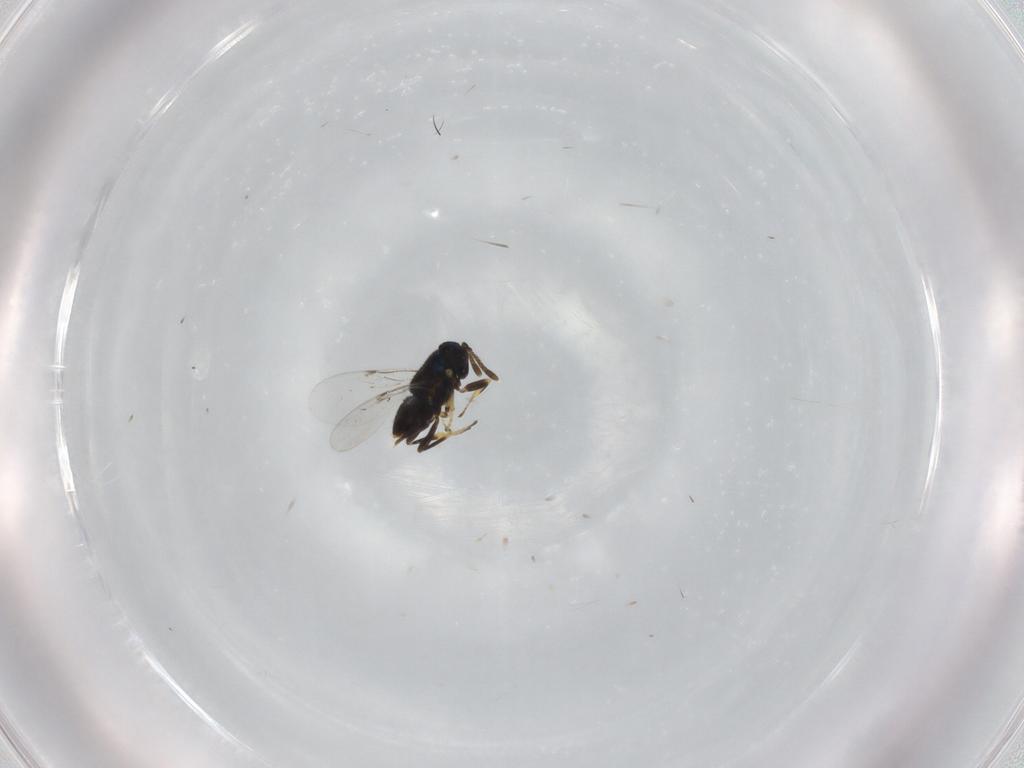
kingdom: Animalia
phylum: Arthropoda
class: Insecta
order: Hymenoptera
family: Encyrtidae
